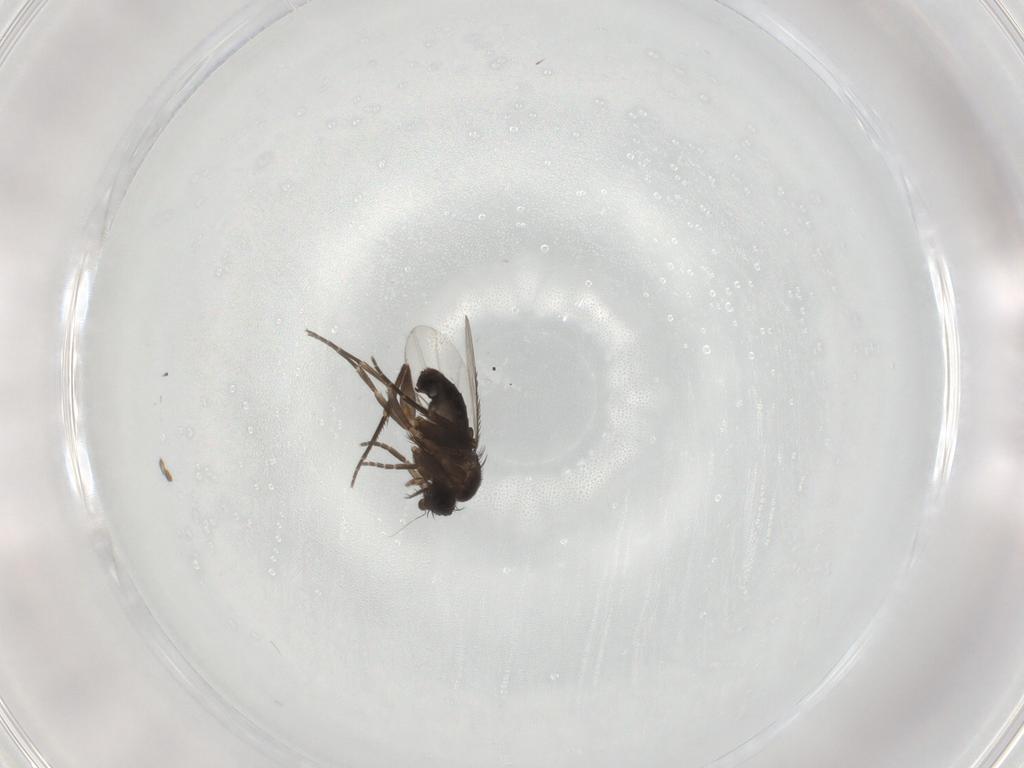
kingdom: Animalia
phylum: Arthropoda
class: Insecta
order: Diptera
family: Phoridae
